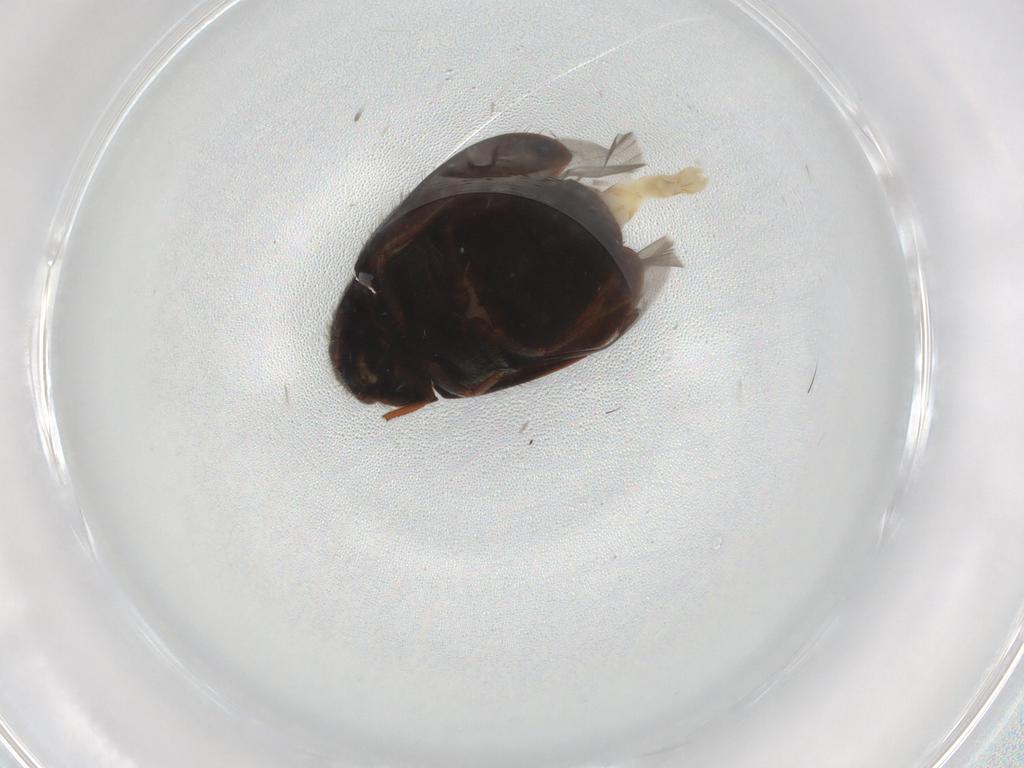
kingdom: Animalia
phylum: Arthropoda
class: Insecta
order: Coleoptera
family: Dermestidae
